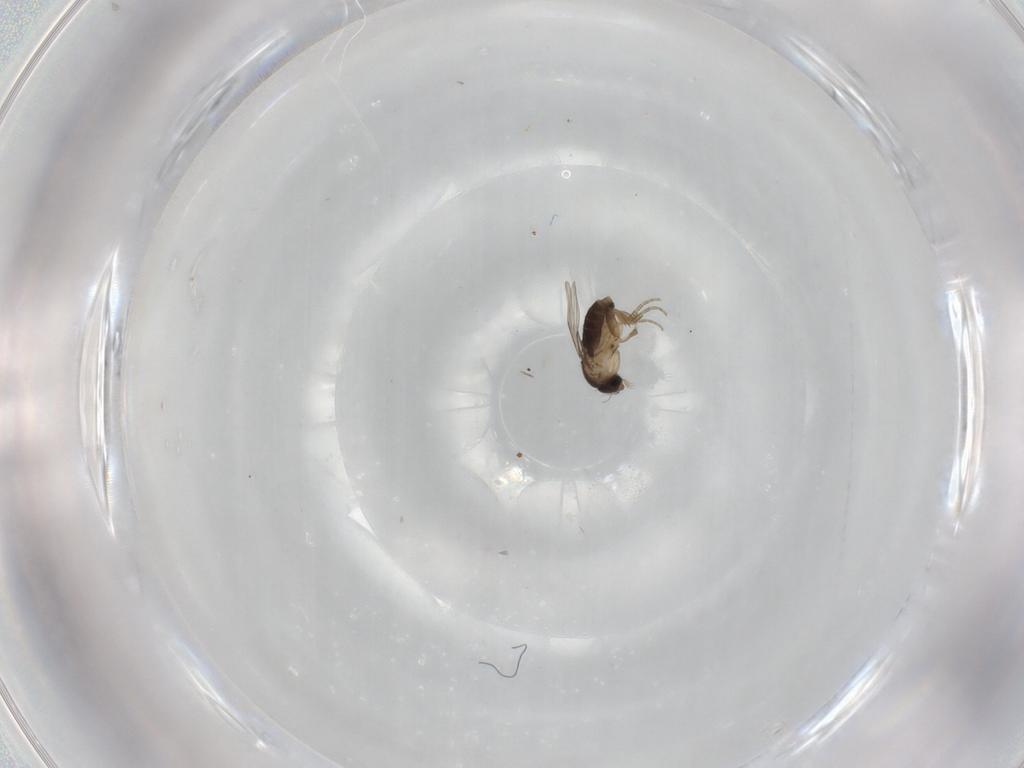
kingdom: Animalia
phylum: Arthropoda
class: Insecta
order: Diptera
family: Phoridae
